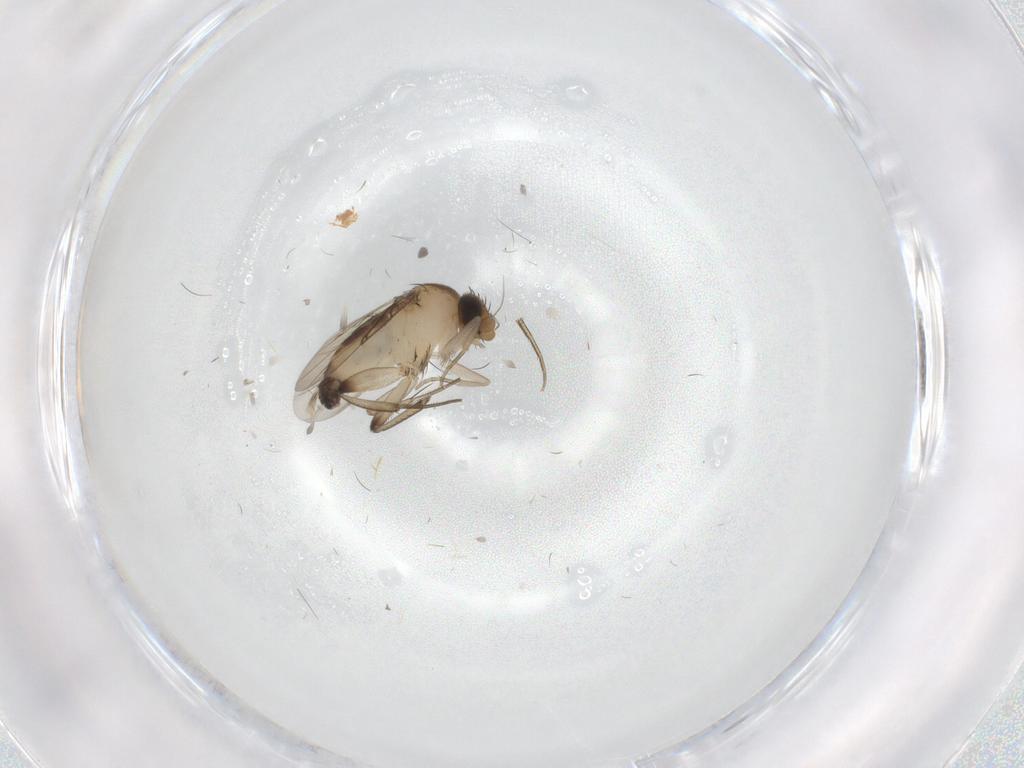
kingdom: Animalia
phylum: Arthropoda
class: Insecta
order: Diptera
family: Phoridae
